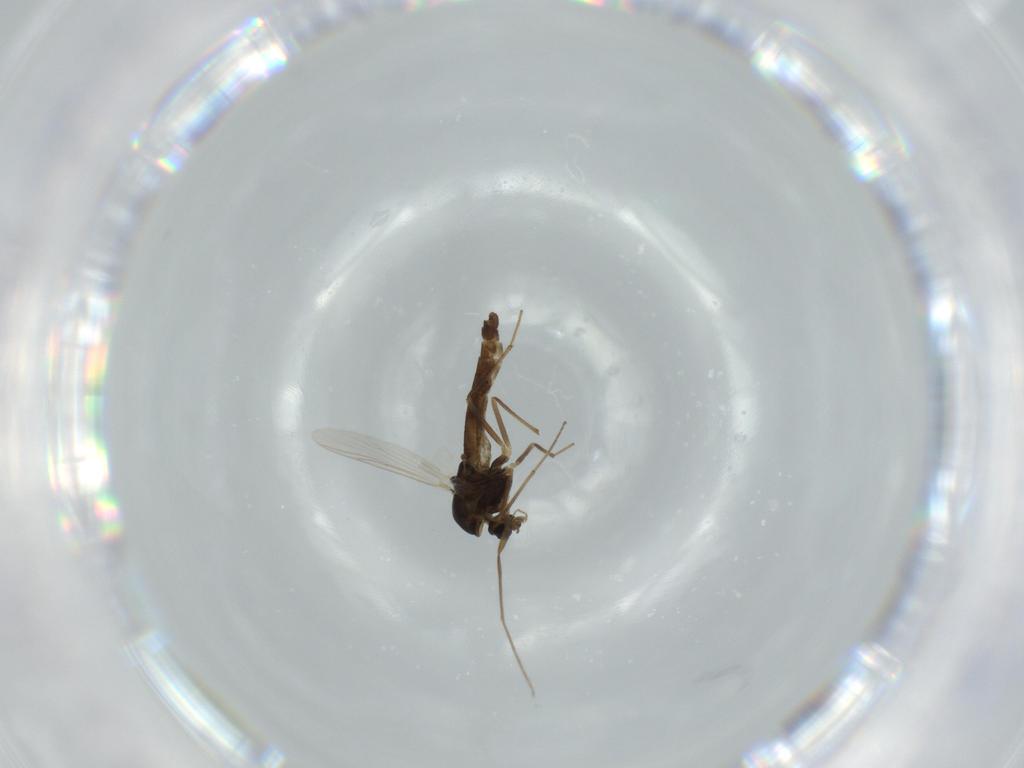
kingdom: Animalia
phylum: Arthropoda
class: Insecta
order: Diptera
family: Chironomidae
